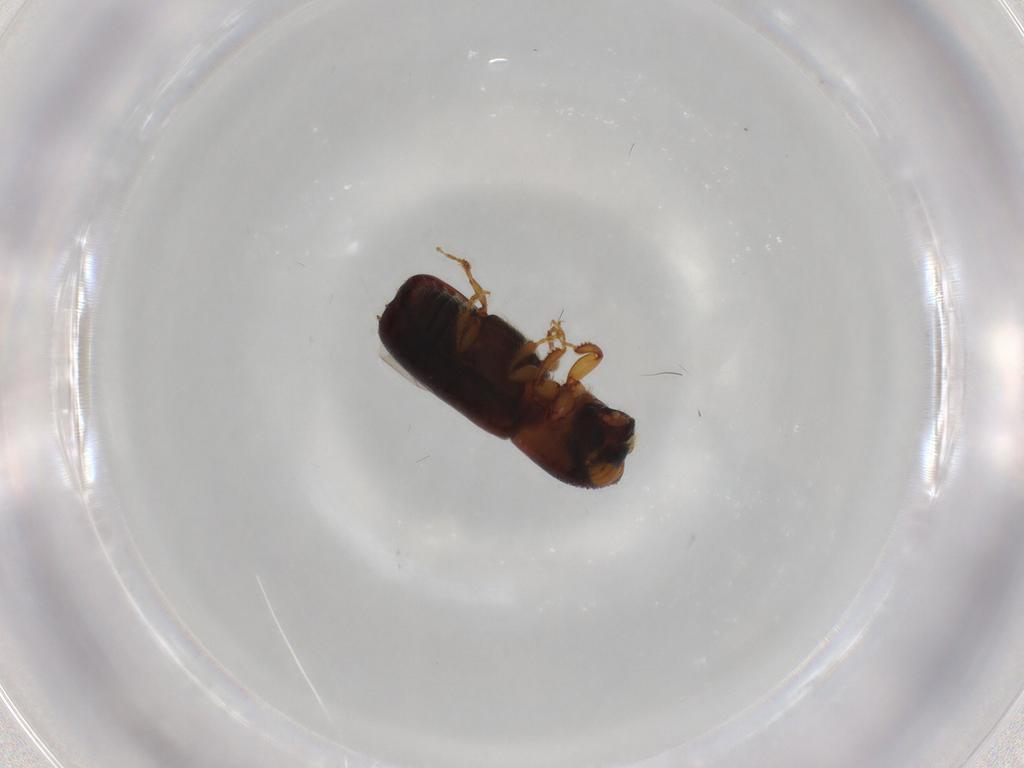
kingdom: Animalia
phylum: Arthropoda
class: Insecta
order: Coleoptera
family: Curculionidae
